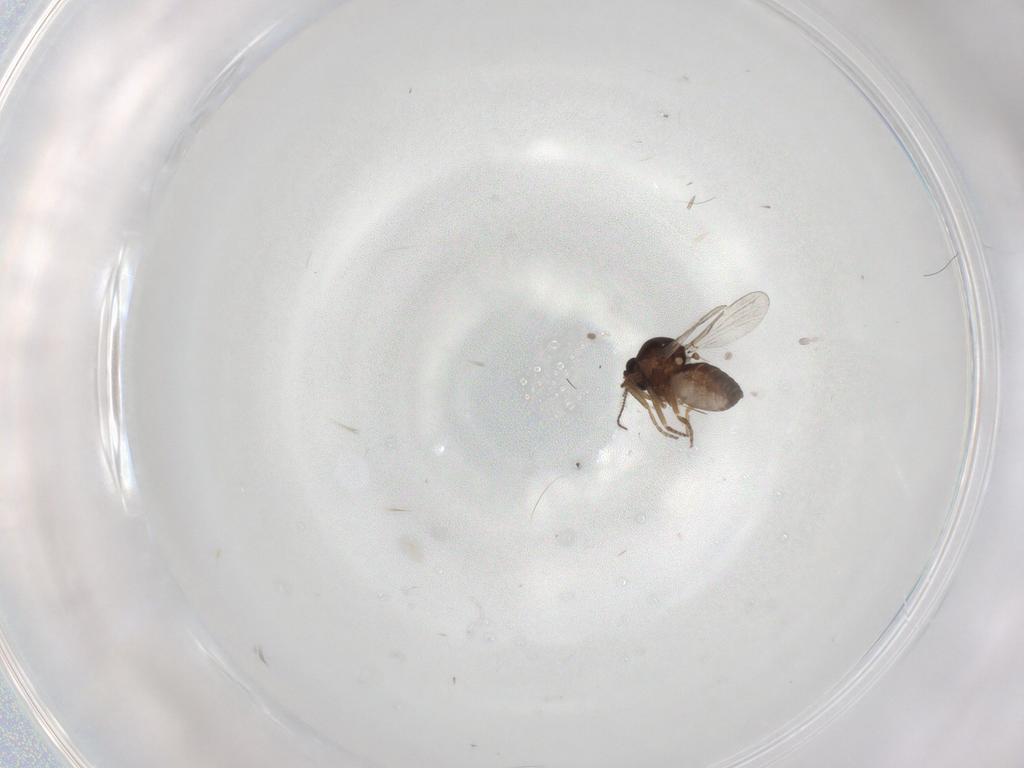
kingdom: Animalia
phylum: Arthropoda
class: Insecta
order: Diptera
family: Ceratopogonidae
